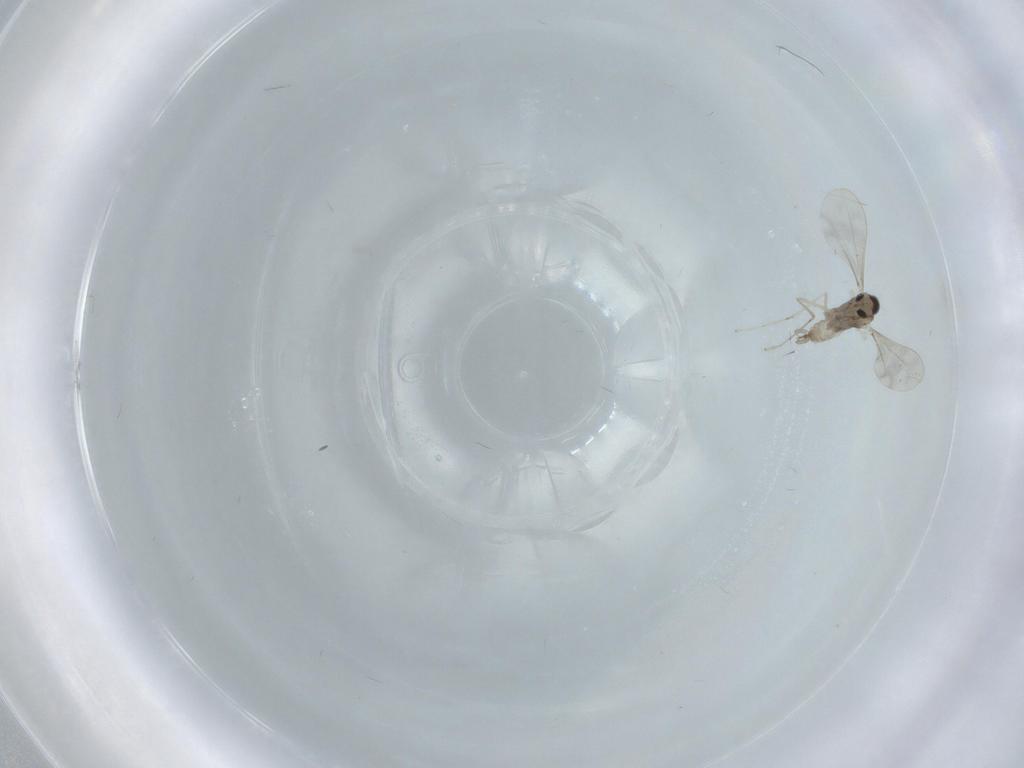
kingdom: Animalia
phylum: Arthropoda
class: Insecta
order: Diptera
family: Cecidomyiidae
